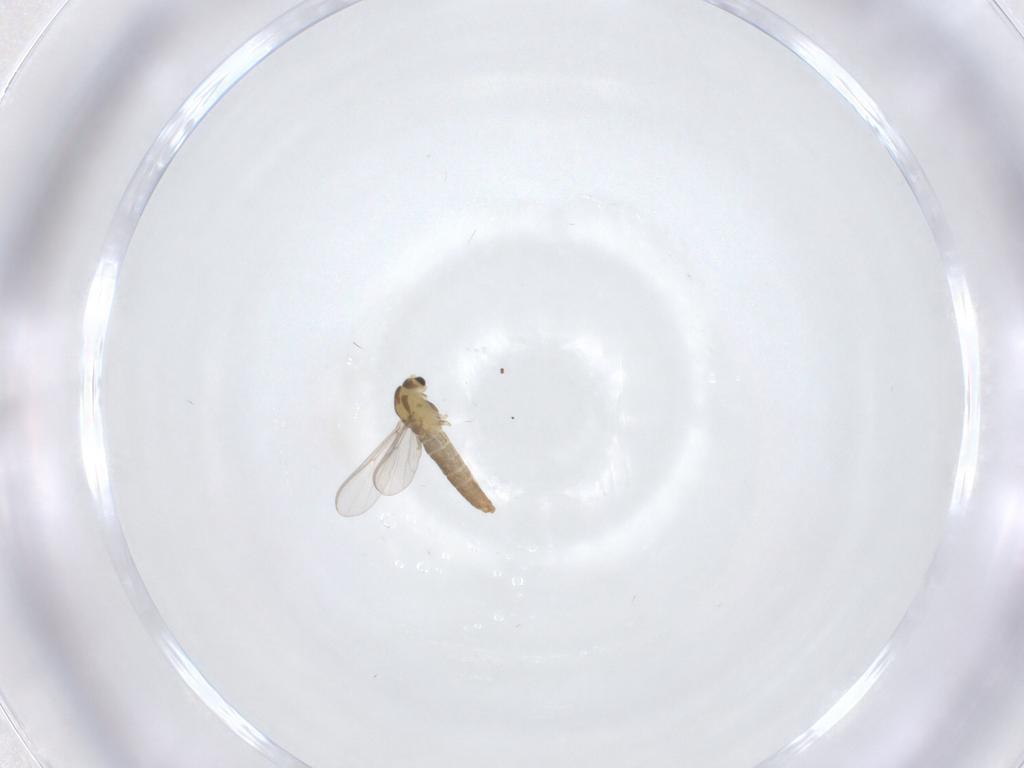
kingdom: Animalia
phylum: Arthropoda
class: Insecta
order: Diptera
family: Chironomidae
